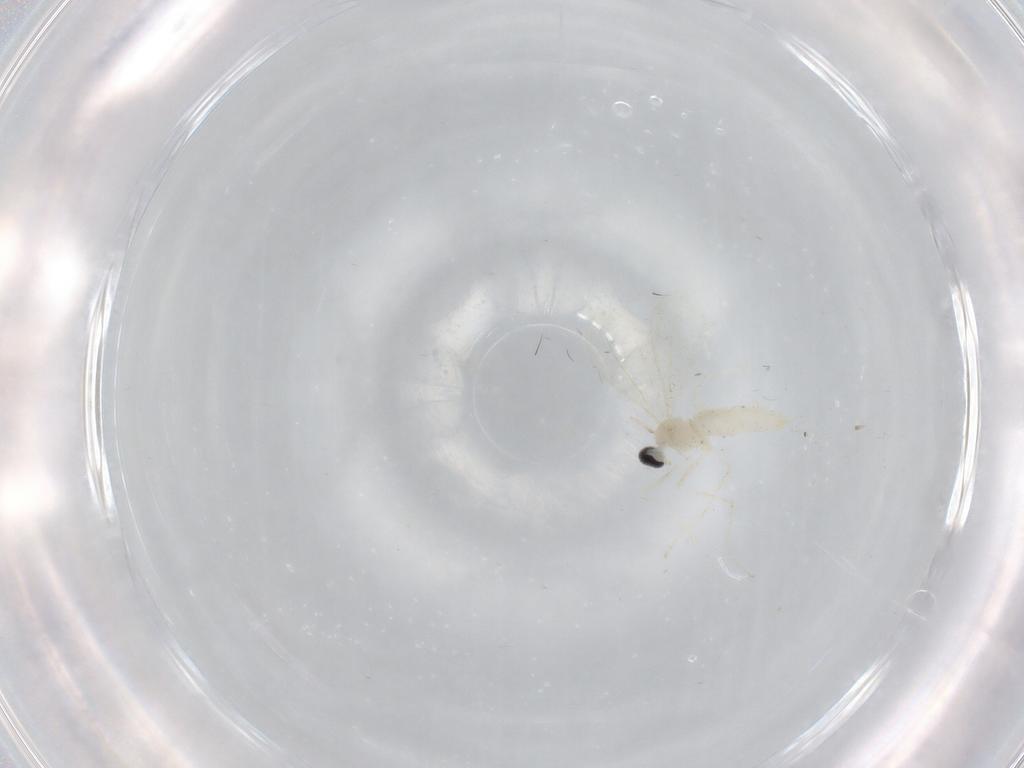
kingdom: Animalia
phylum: Arthropoda
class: Insecta
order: Diptera
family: Cecidomyiidae
